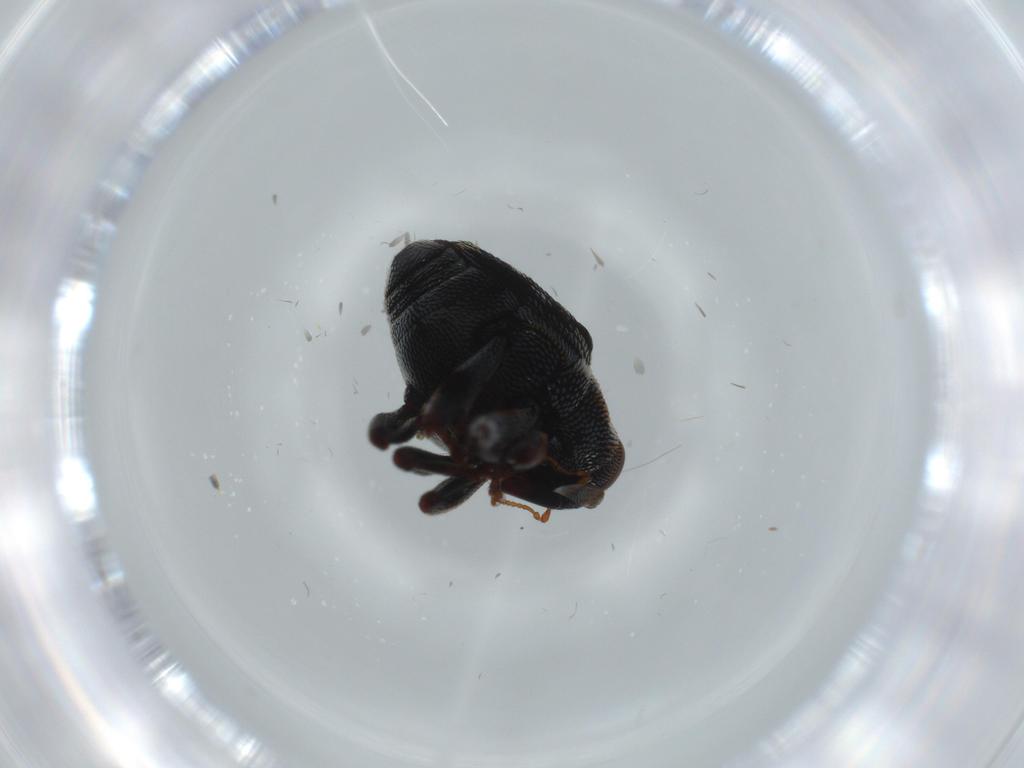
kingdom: Animalia
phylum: Arthropoda
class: Insecta
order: Coleoptera
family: Curculionidae
